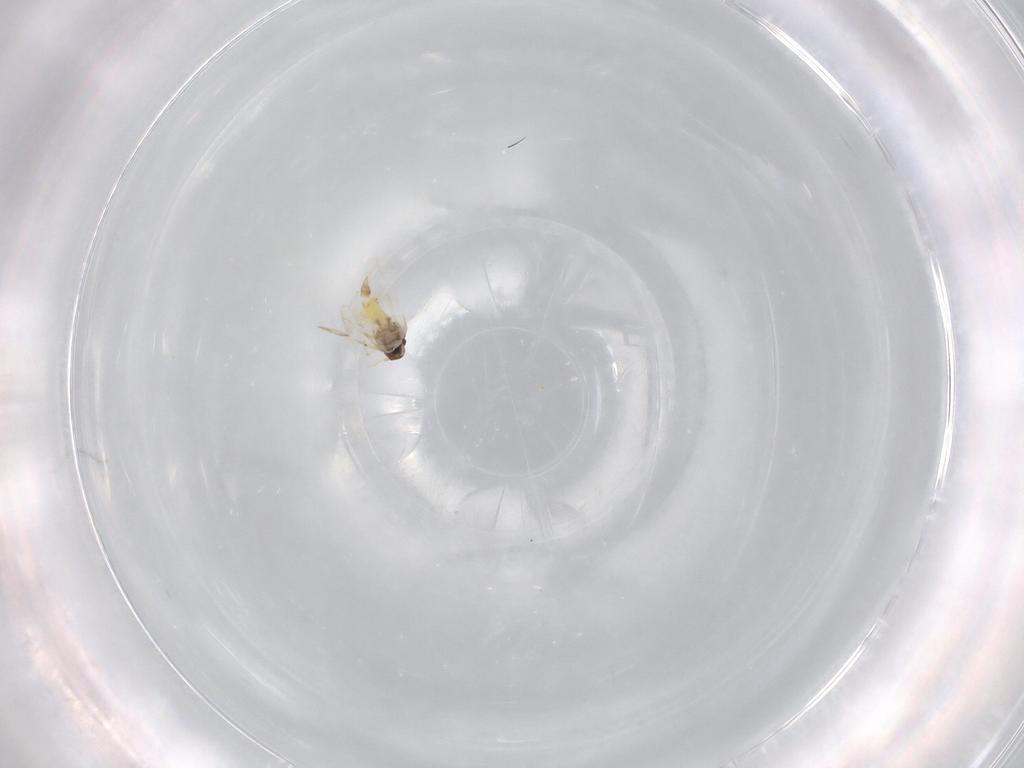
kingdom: Animalia
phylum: Arthropoda
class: Insecta
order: Hemiptera
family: Aleyrodidae
